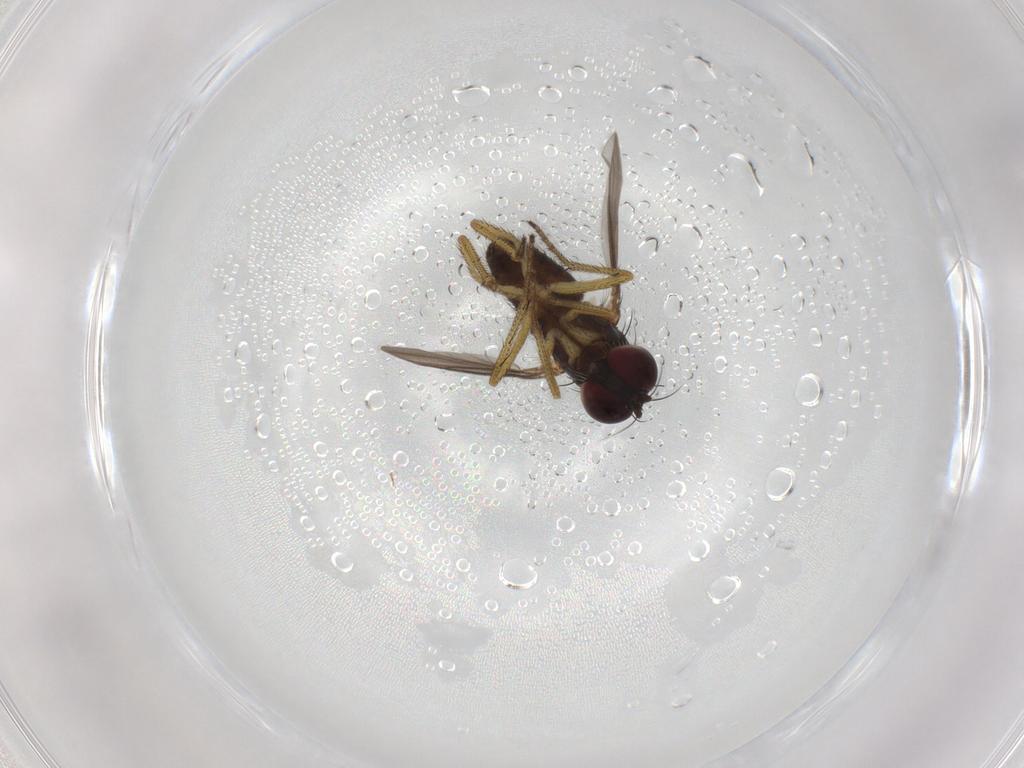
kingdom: Animalia
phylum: Arthropoda
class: Insecta
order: Diptera
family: Dolichopodidae
